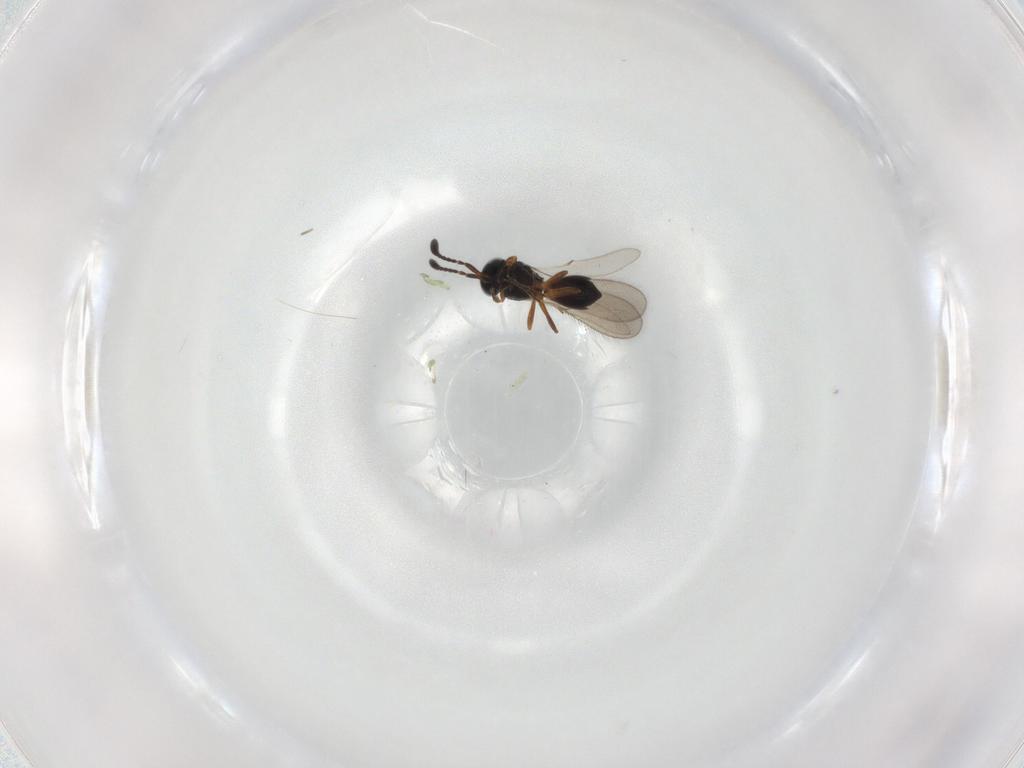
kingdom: Animalia
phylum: Arthropoda
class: Insecta
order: Hymenoptera
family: Scelionidae
